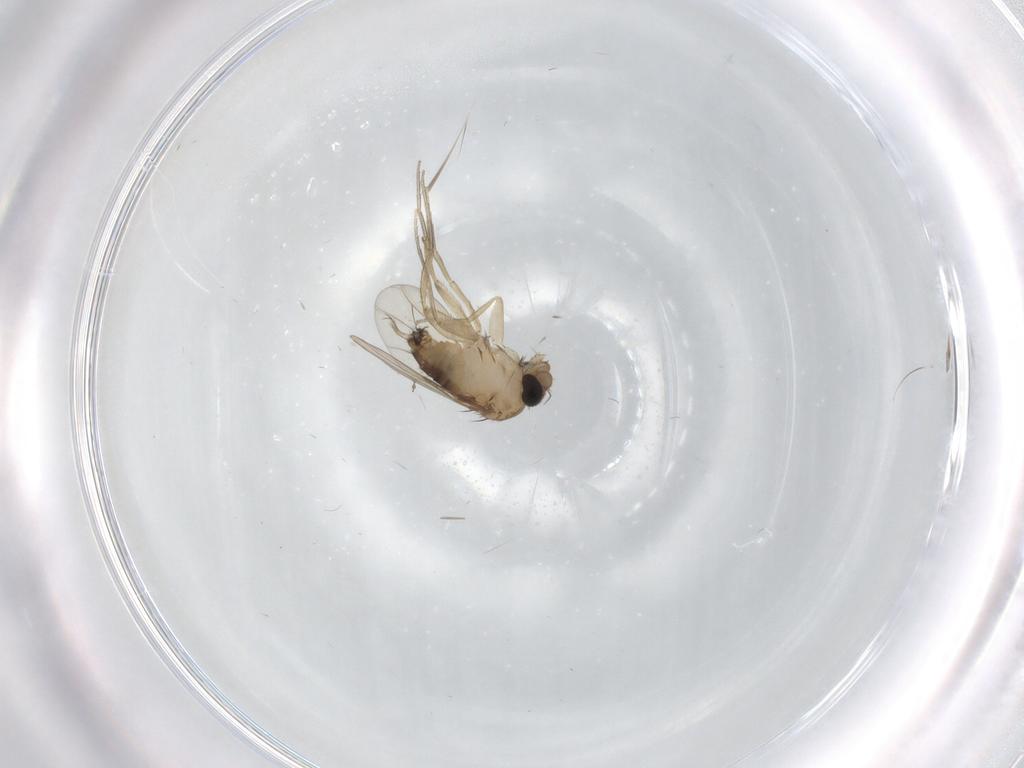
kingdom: Animalia
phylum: Arthropoda
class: Insecta
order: Diptera
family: Phoridae
